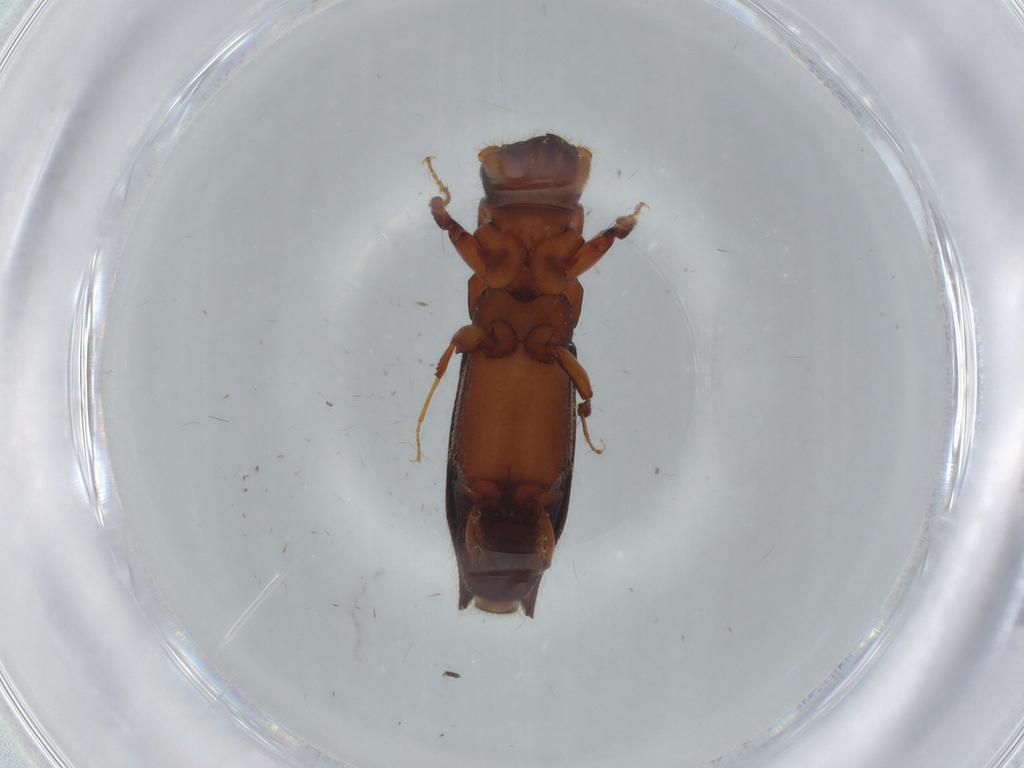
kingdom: Animalia
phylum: Arthropoda
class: Insecta
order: Coleoptera
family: Curculionidae
